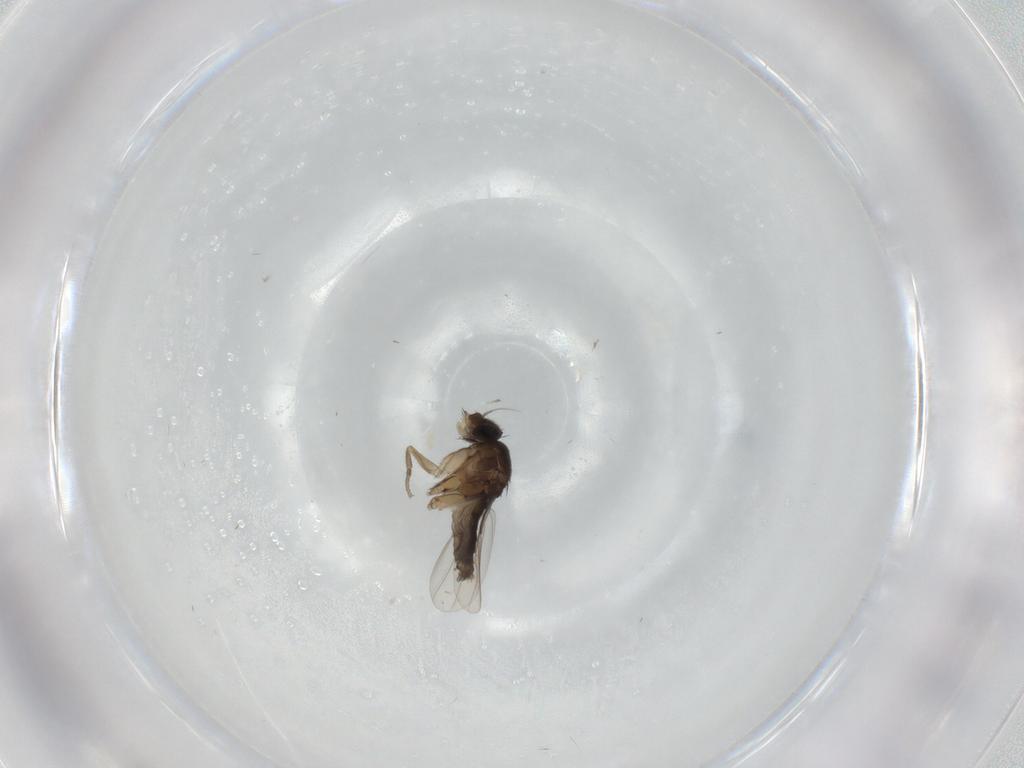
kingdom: Animalia
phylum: Arthropoda
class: Insecta
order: Diptera
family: Phoridae
